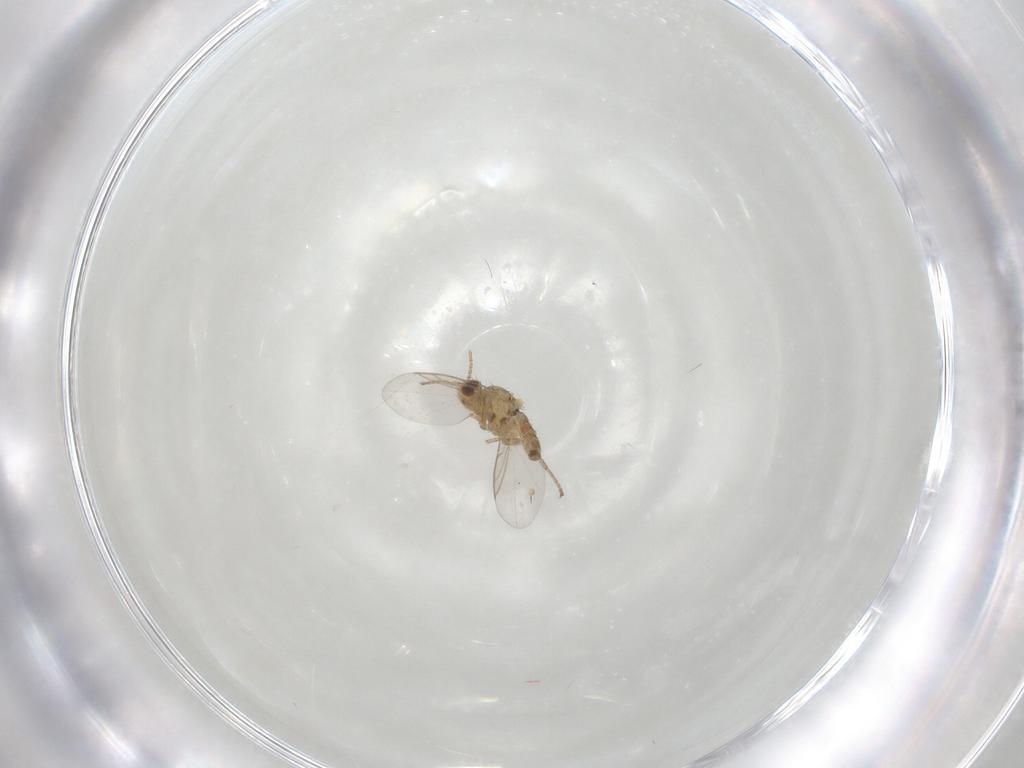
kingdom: Animalia
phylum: Arthropoda
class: Insecta
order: Diptera
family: Agromyzidae
